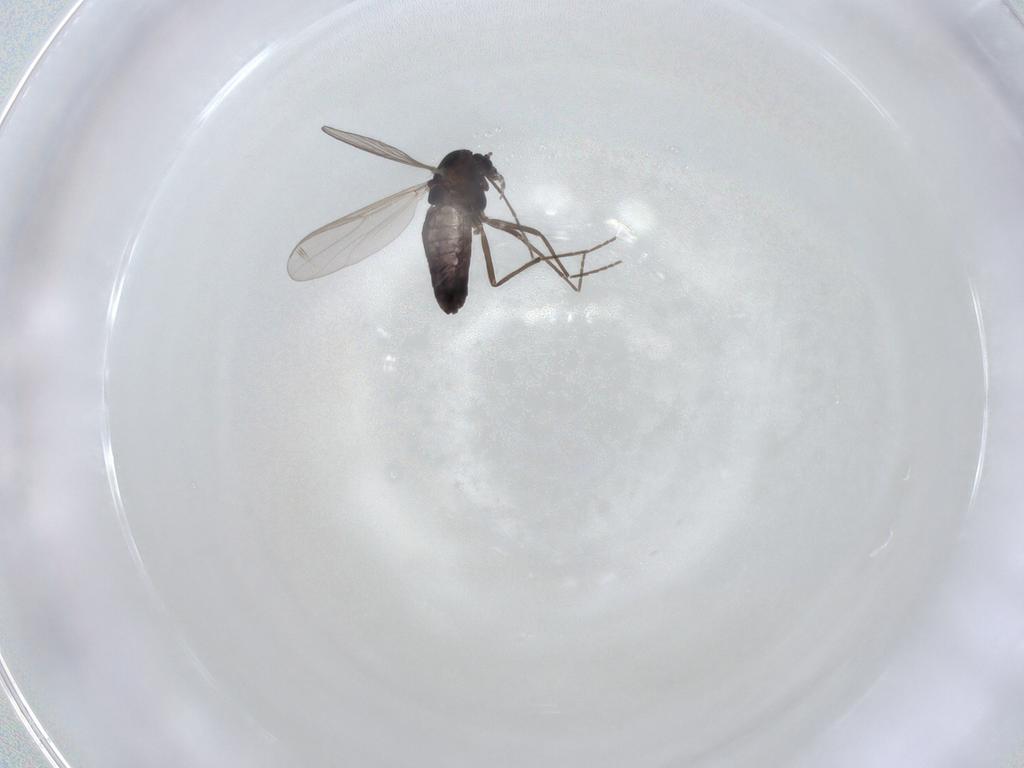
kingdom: Animalia
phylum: Arthropoda
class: Insecta
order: Diptera
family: Chironomidae
